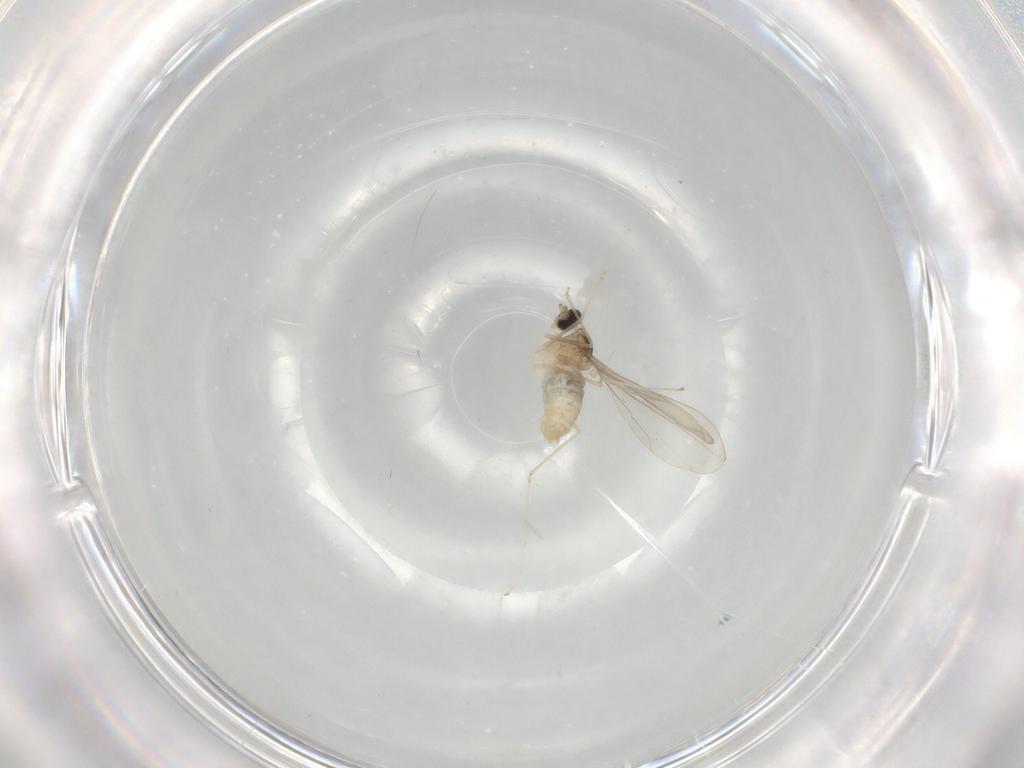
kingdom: Animalia
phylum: Arthropoda
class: Insecta
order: Diptera
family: Cecidomyiidae
